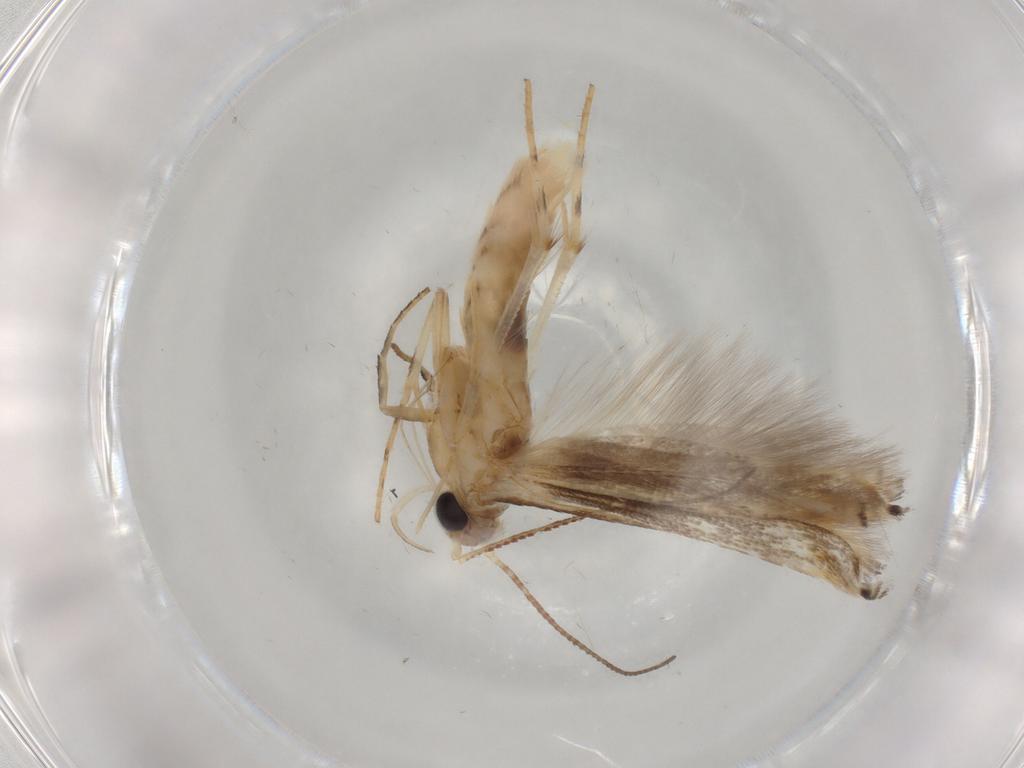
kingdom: Animalia
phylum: Arthropoda
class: Insecta
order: Lepidoptera
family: Gelechiidae
